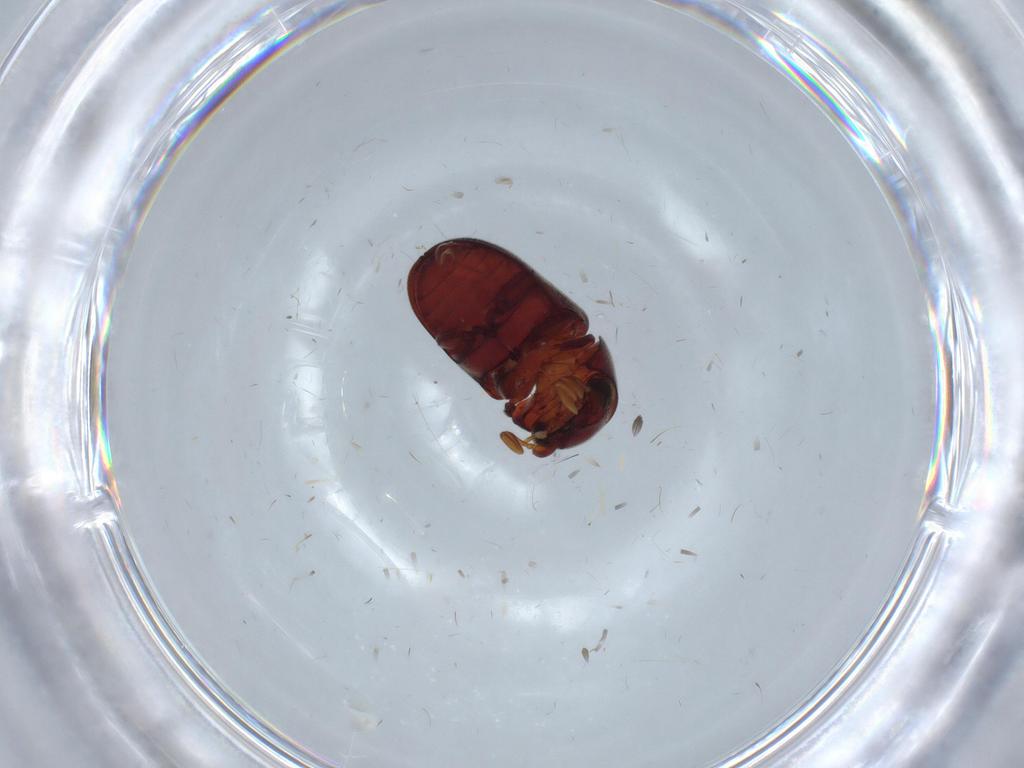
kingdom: Animalia
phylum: Arthropoda
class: Insecta
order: Coleoptera
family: Ptinidae
